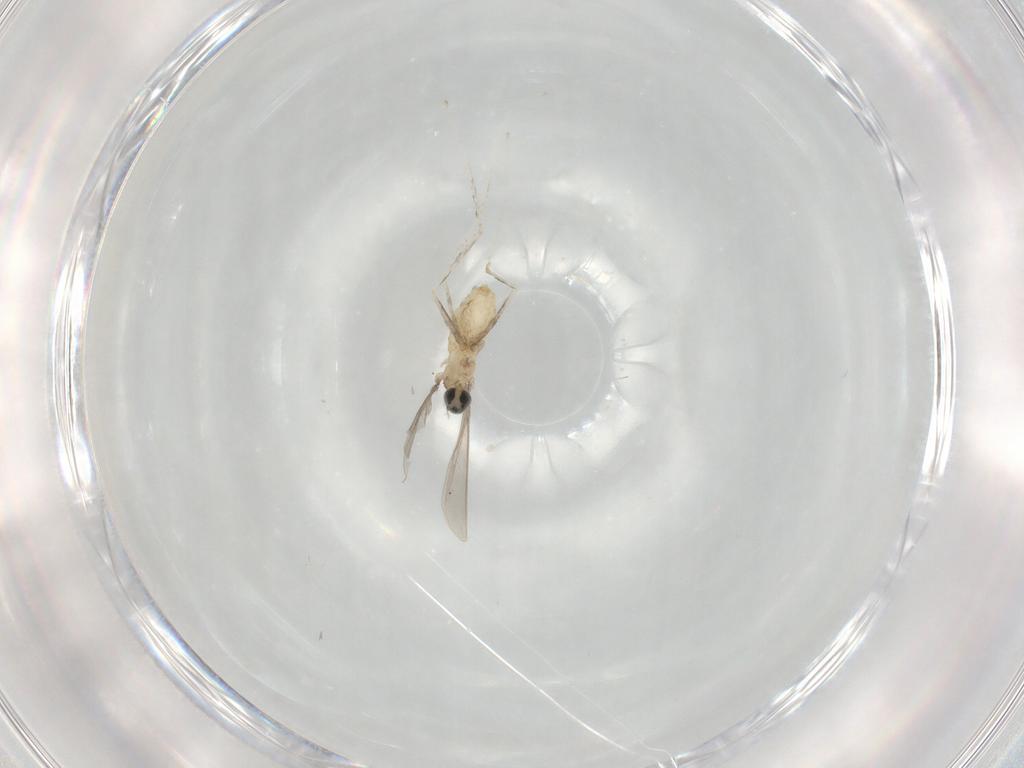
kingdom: Animalia
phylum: Arthropoda
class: Insecta
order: Diptera
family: Cecidomyiidae
